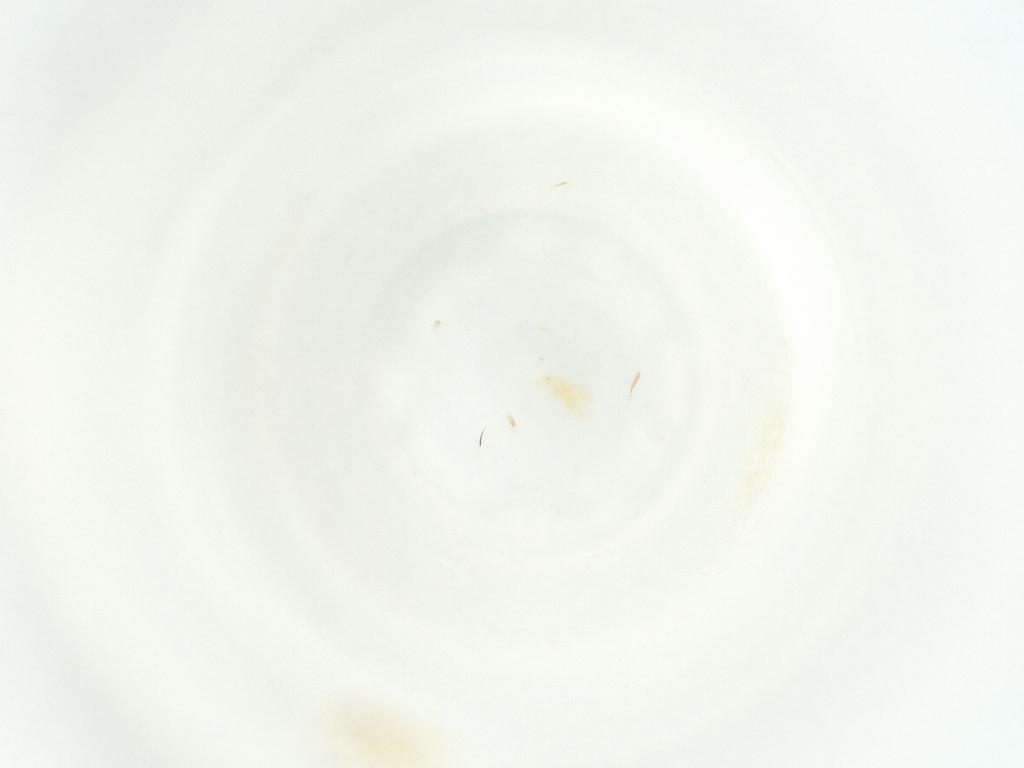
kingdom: Animalia
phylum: Arthropoda
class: Insecta
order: Hymenoptera
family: Mymaridae
